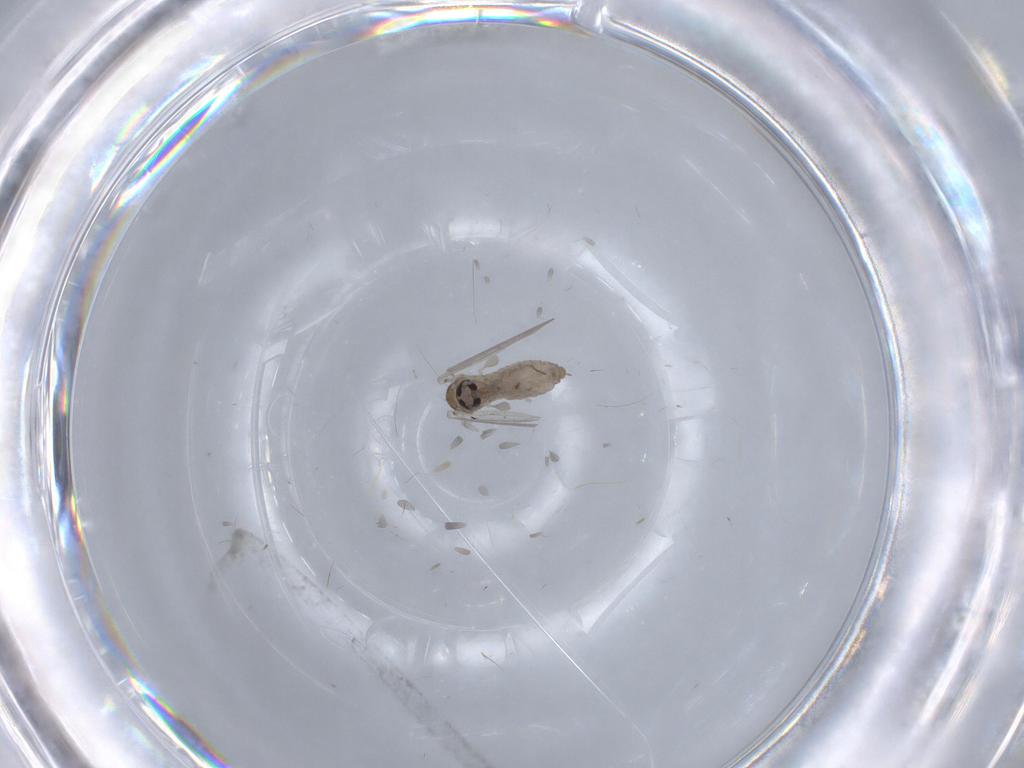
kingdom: Animalia
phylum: Arthropoda
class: Insecta
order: Diptera
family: Psychodidae
